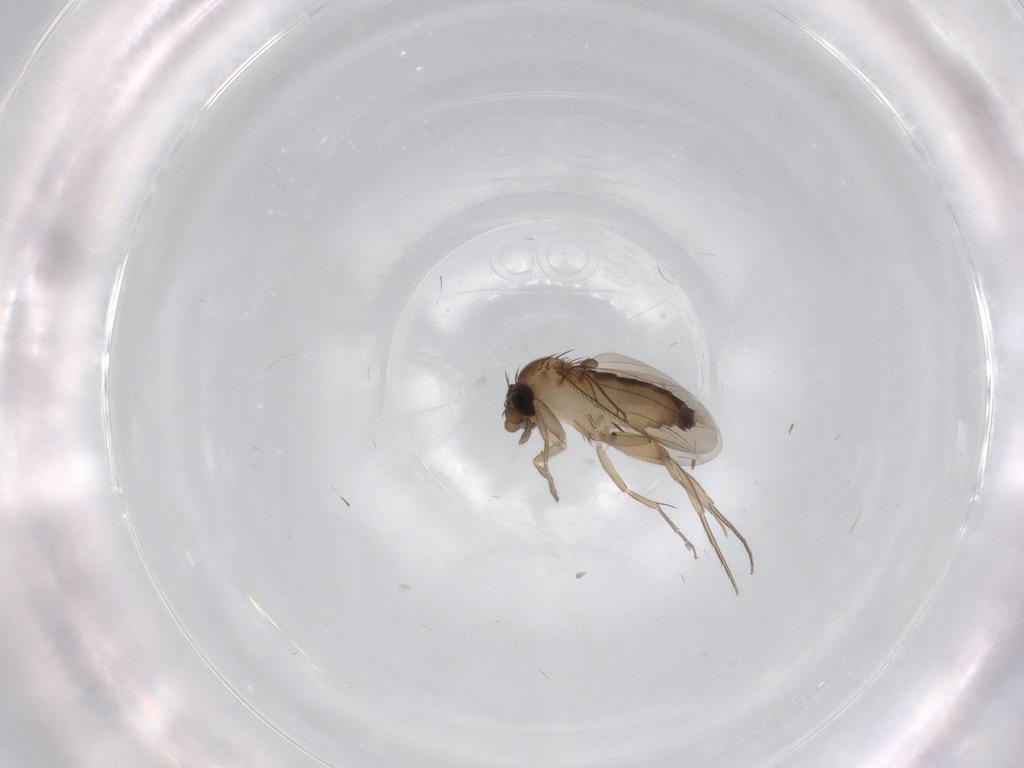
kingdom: Animalia
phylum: Arthropoda
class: Insecta
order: Diptera
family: Phoridae
